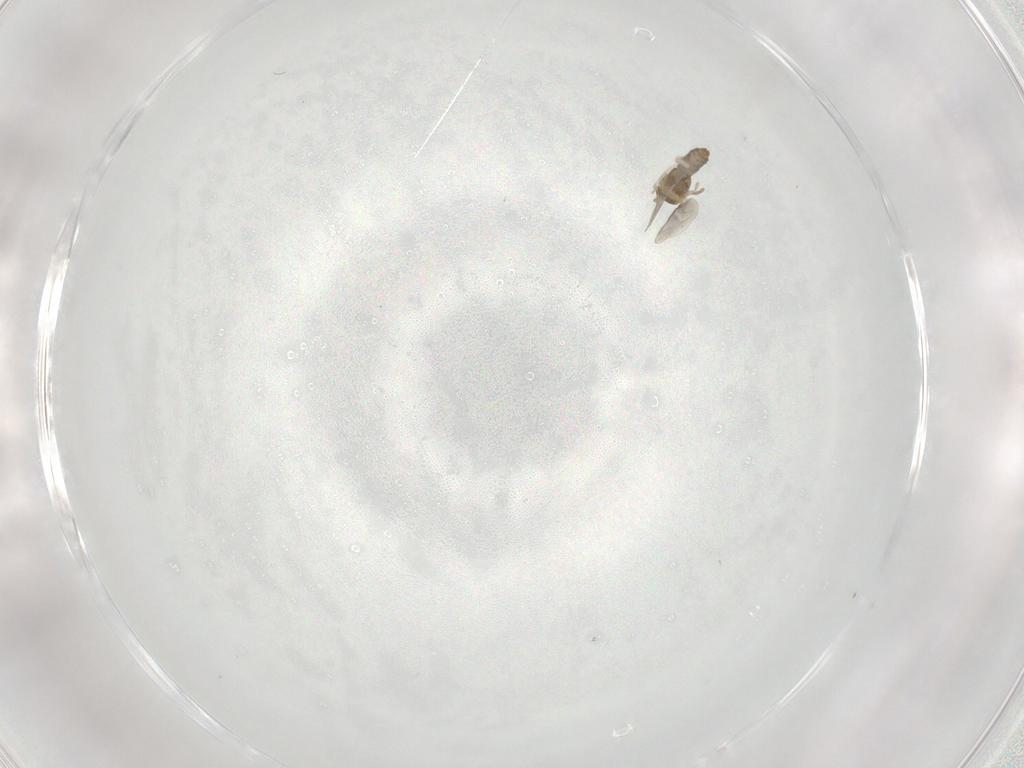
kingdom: Animalia
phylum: Arthropoda
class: Insecta
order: Diptera
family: Cecidomyiidae
